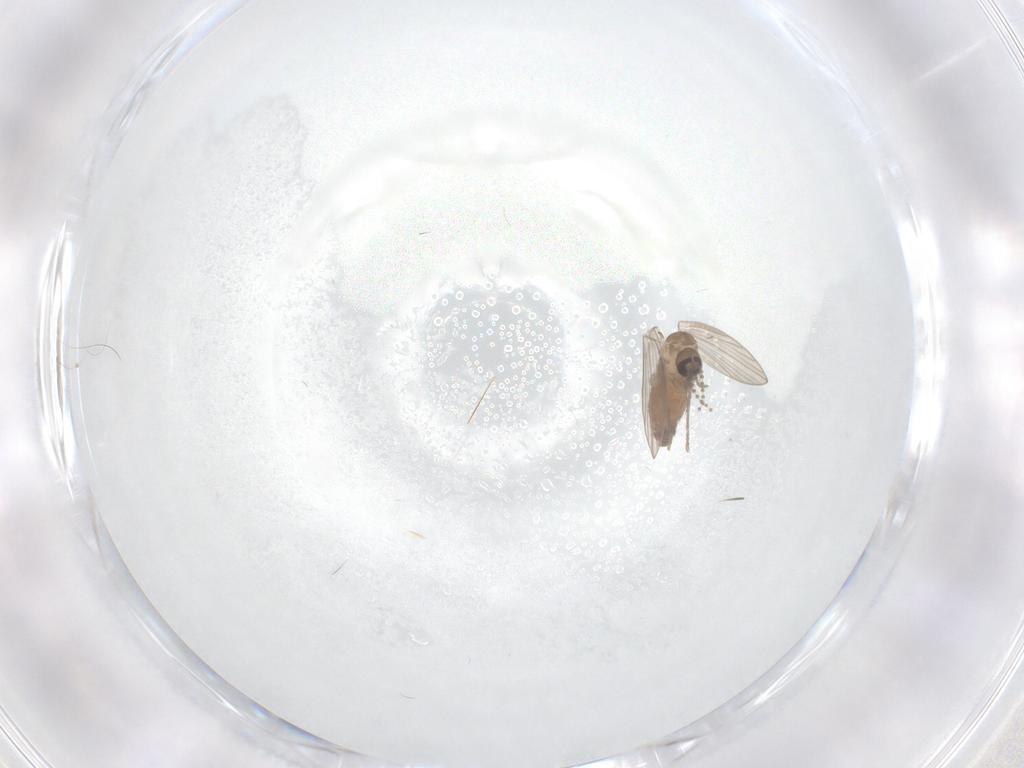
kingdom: Animalia
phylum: Arthropoda
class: Insecta
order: Diptera
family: Psychodidae
